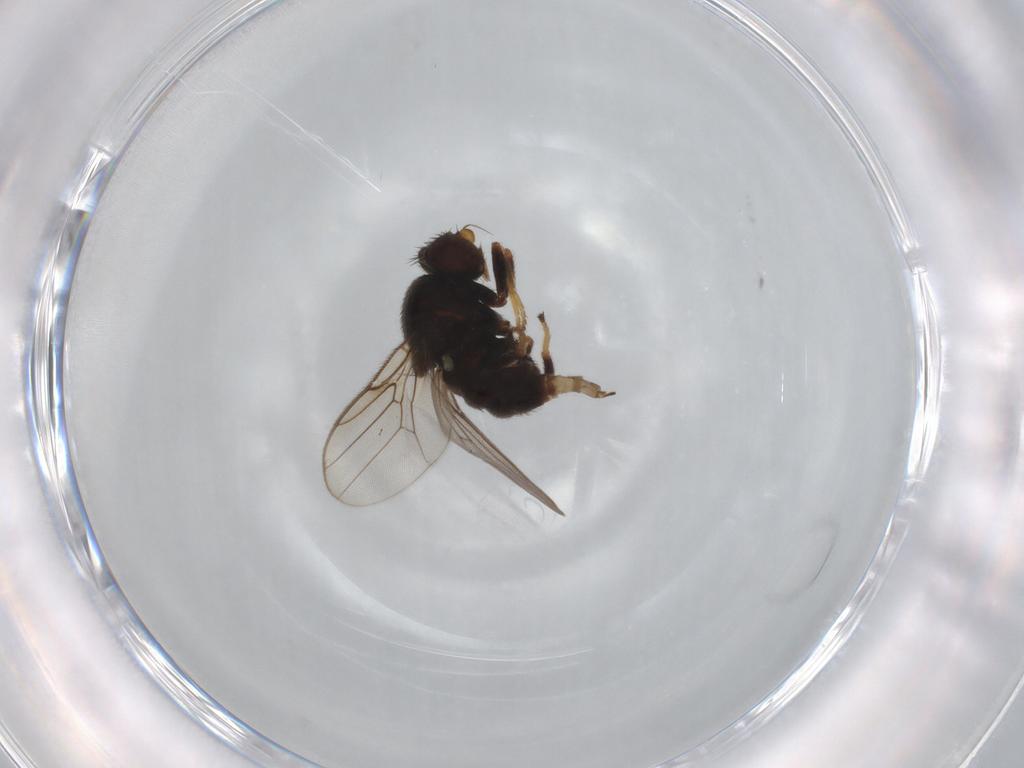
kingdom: Animalia
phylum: Arthropoda
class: Insecta
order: Diptera
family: Chloropidae
